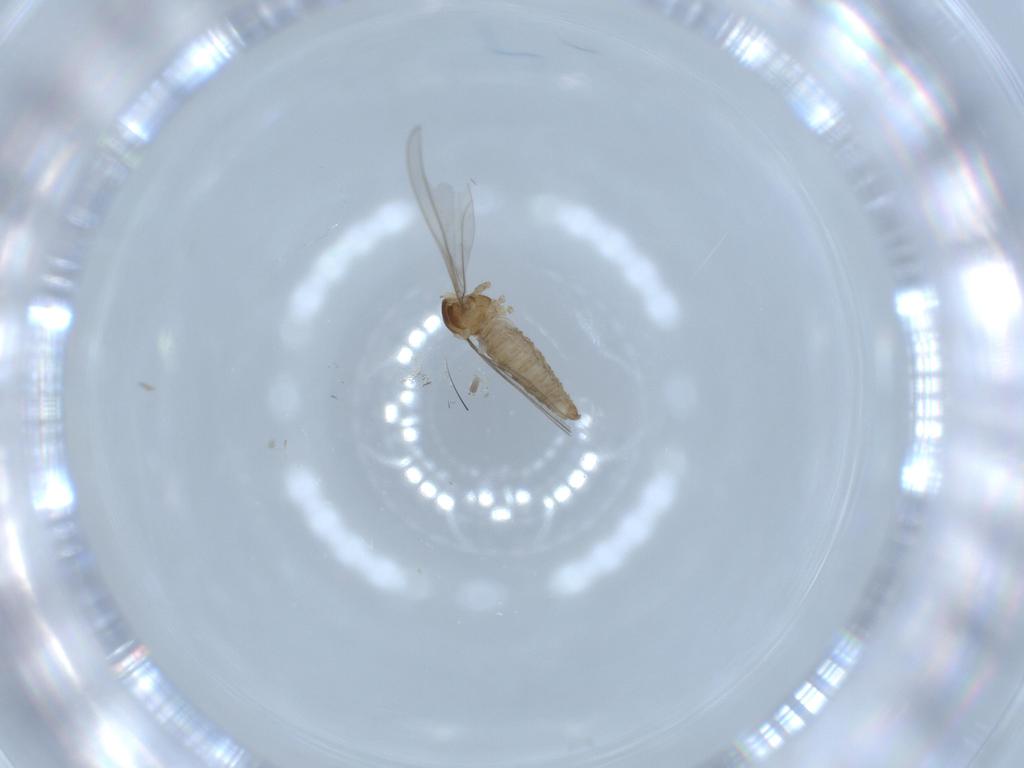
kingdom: Animalia
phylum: Arthropoda
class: Insecta
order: Diptera
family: Cecidomyiidae
